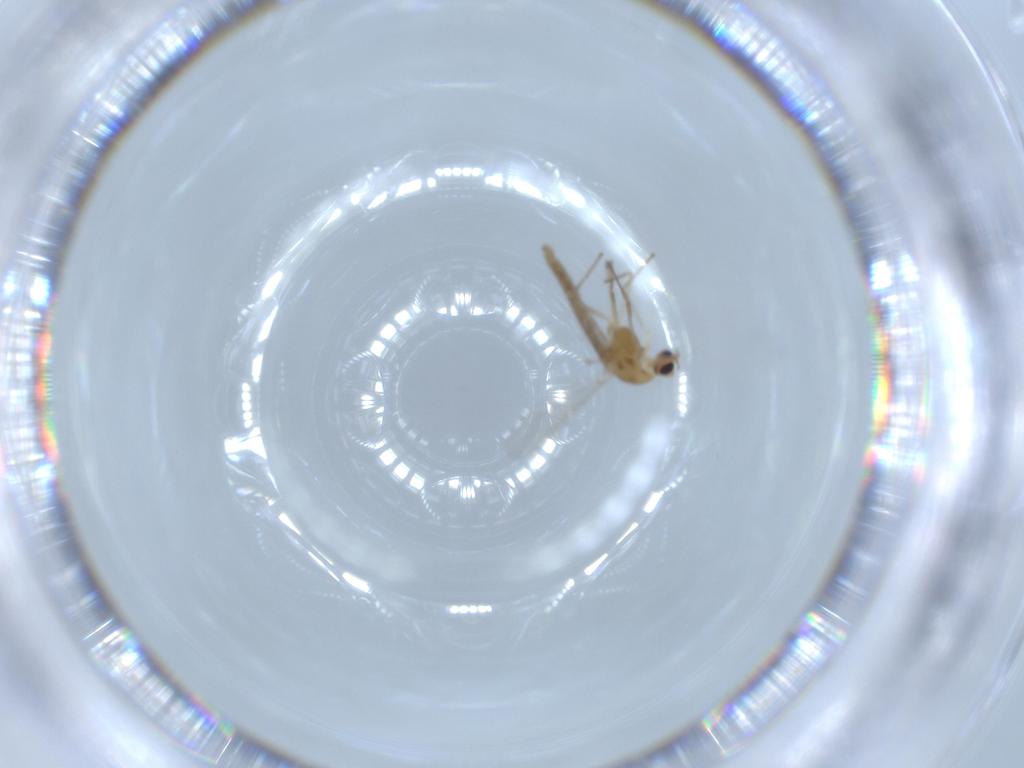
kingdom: Animalia
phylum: Arthropoda
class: Insecta
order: Diptera
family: Cecidomyiidae
